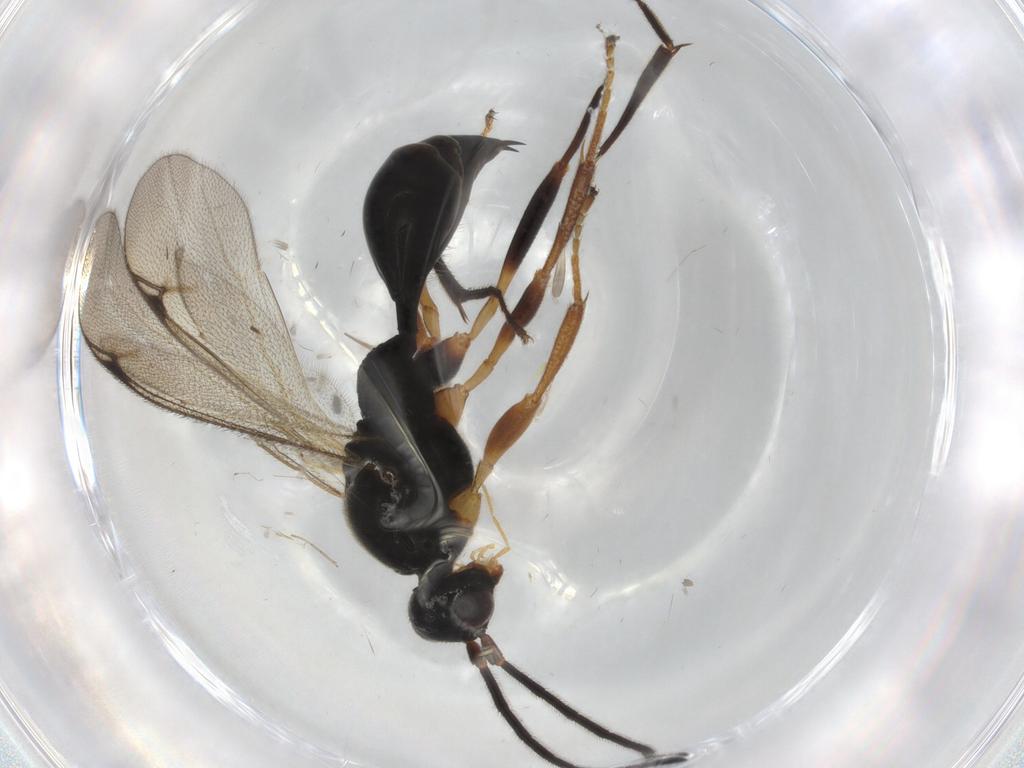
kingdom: Animalia
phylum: Arthropoda
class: Insecta
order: Hymenoptera
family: Proctotrupidae
